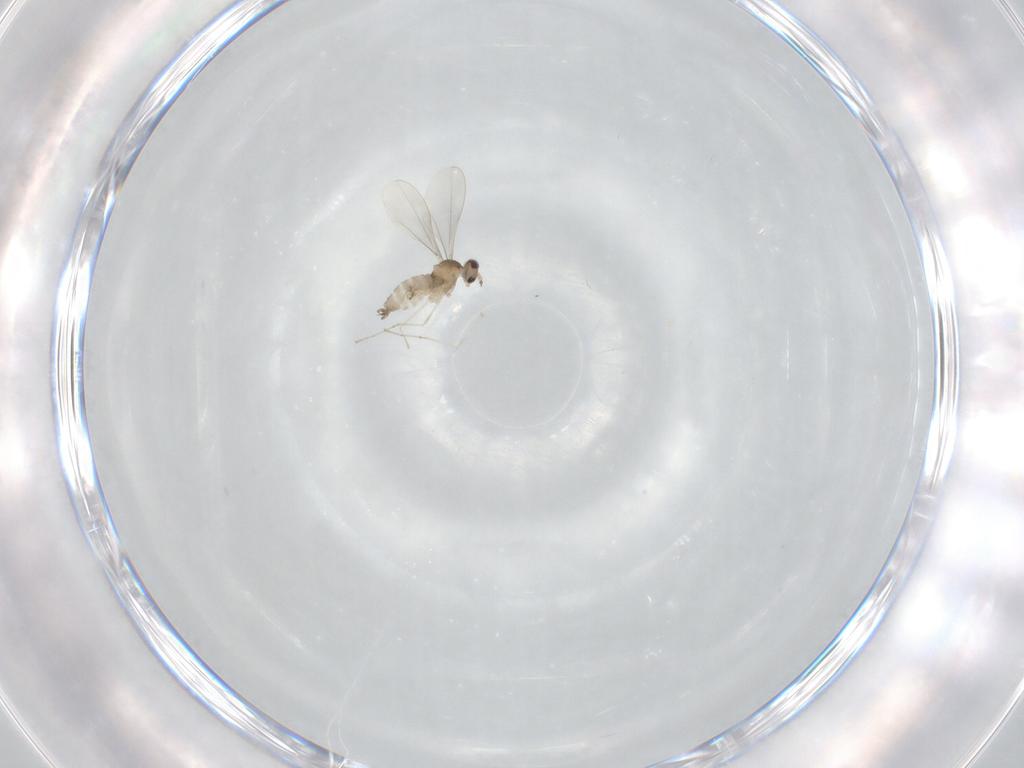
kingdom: Animalia
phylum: Arthropoda
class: Insecta
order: Diptera
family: Cecidomyiidae
